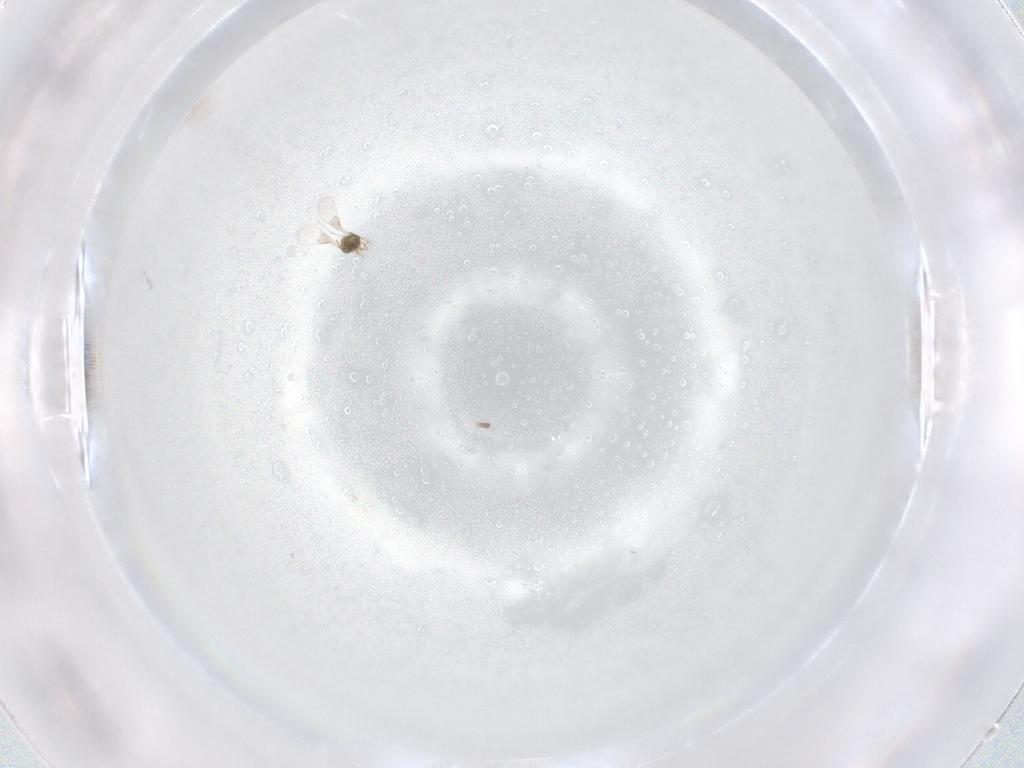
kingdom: Animalia
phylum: Arthropoda
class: Insecta
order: Hymenoptera
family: Trichogrammatidae
